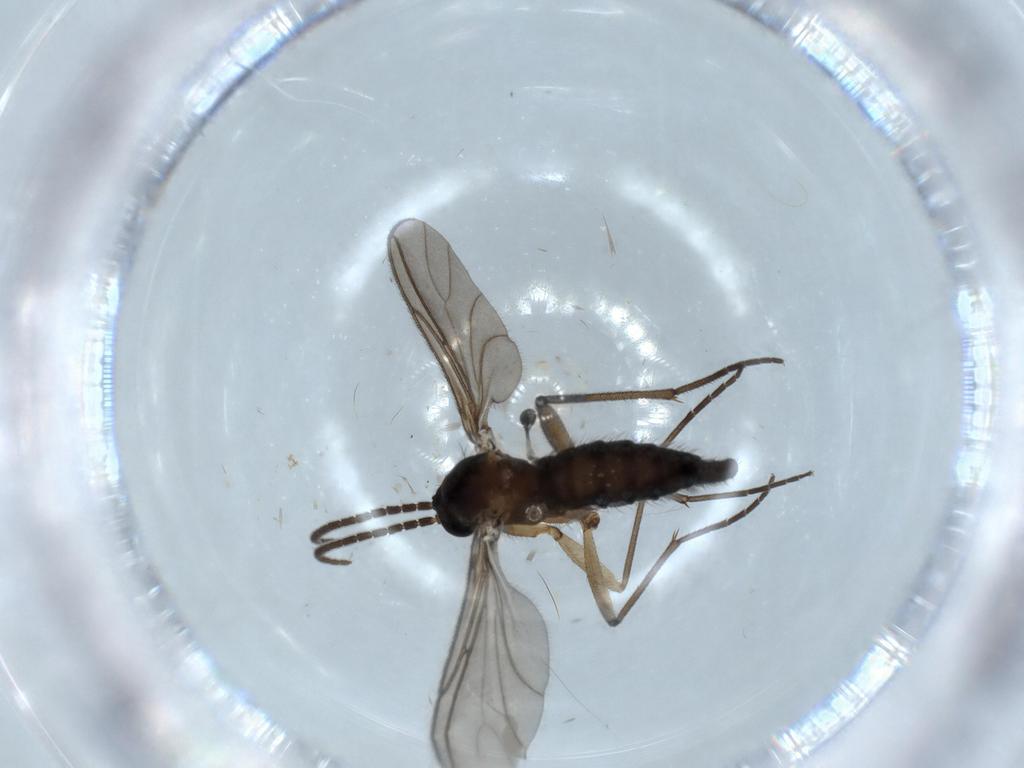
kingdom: Animalia
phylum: Arthropoda
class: Insecta
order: Diptera
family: Sciaridae
